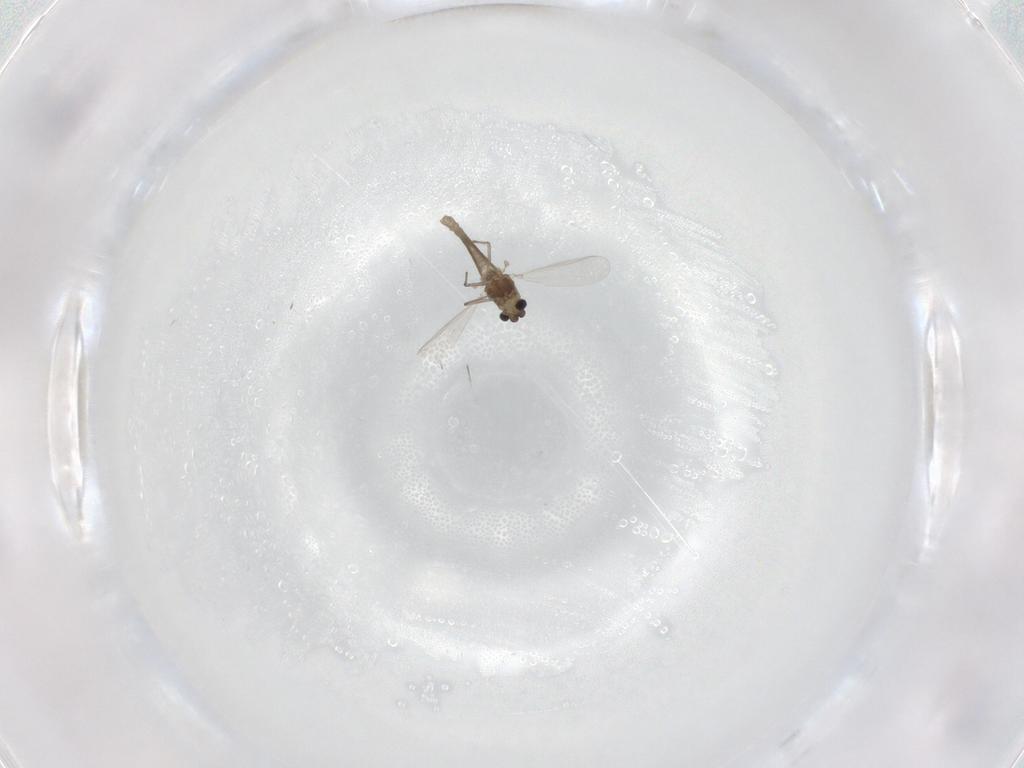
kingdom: Animalia
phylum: Arthropoda
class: Insecta
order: Diptera
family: Chironomidae
